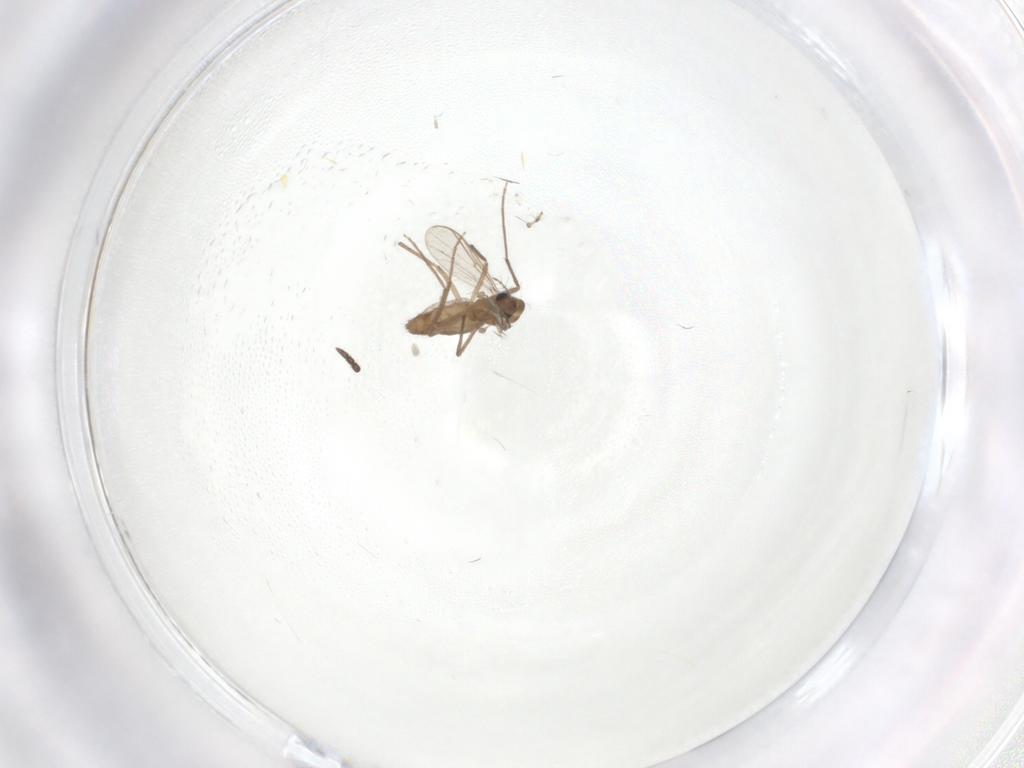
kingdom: Animalia
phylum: Arthropoda
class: Insecta
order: Diptera
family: Chironomidae
